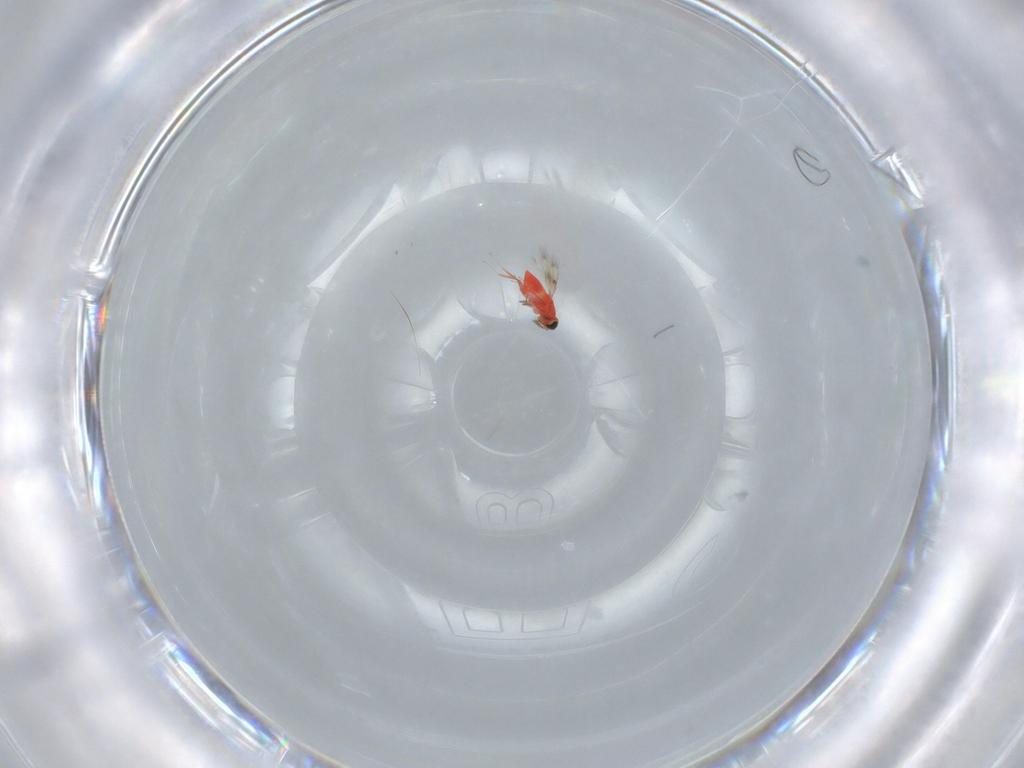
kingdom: Animalia
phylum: Arthropoda
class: Insecta
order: Hymenoptera
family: Trichogrammatidae
